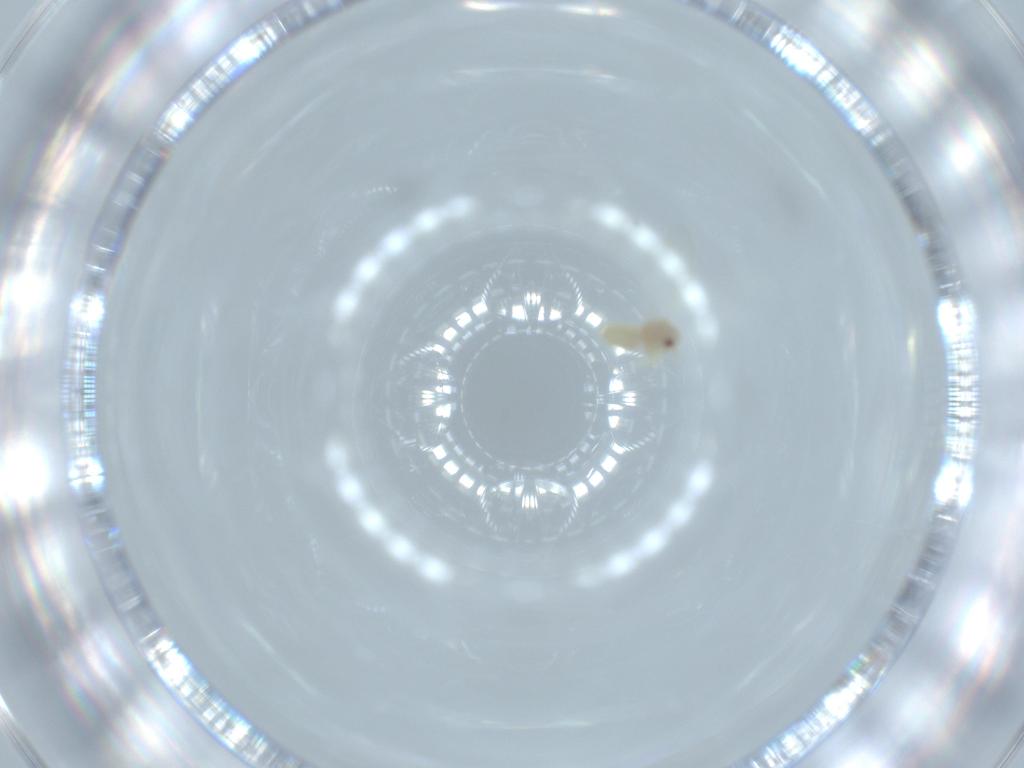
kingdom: Animalia
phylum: Arthropoda
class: Insecta
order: Hemiptera
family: Aleyrodidae
